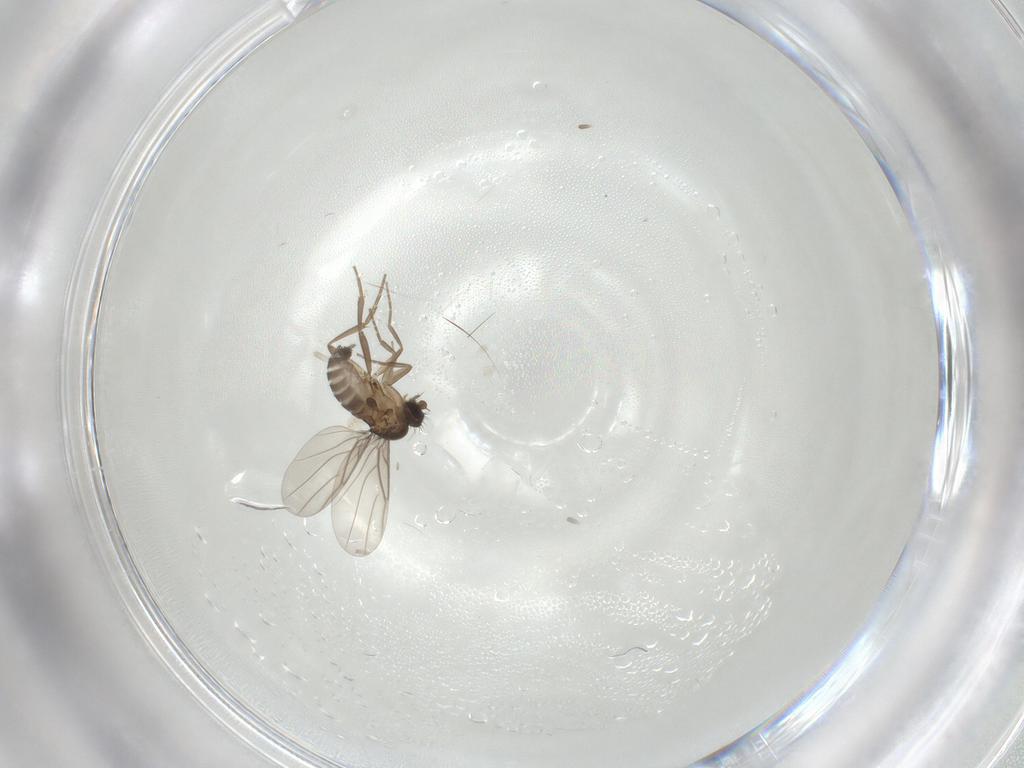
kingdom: Animalia
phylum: Arthropoda
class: Insecta
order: Diptera
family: Phoridae
